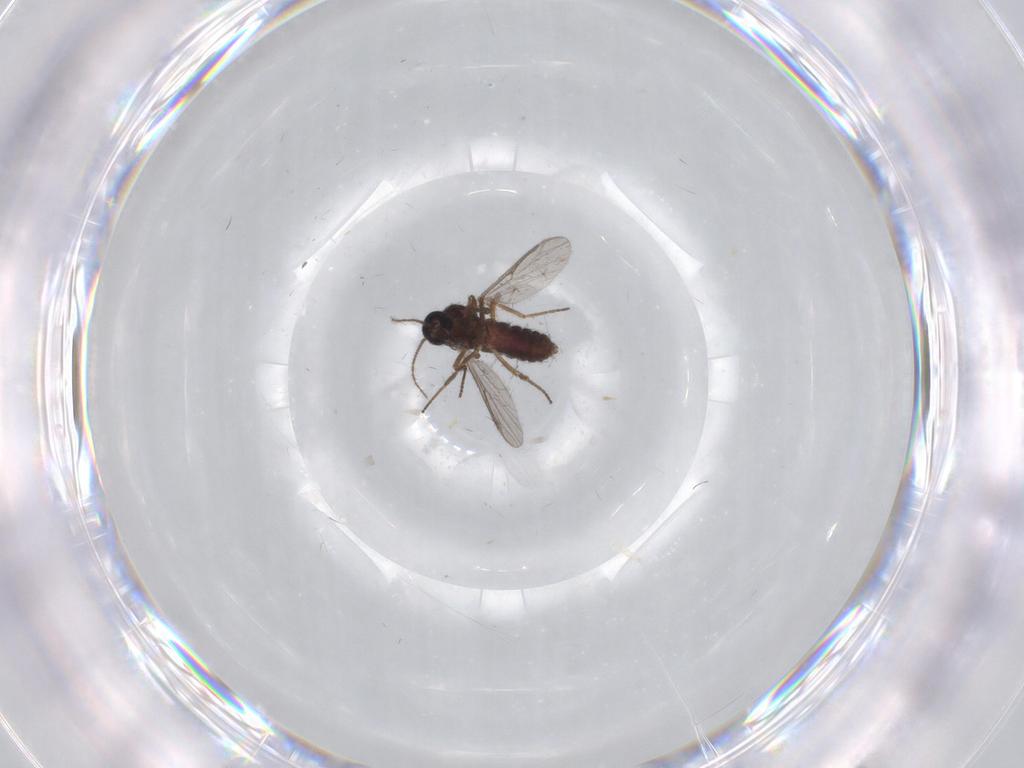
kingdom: Animalia
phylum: Arthropoda
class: Insecta
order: Diptera
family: Ceratopogonidae
